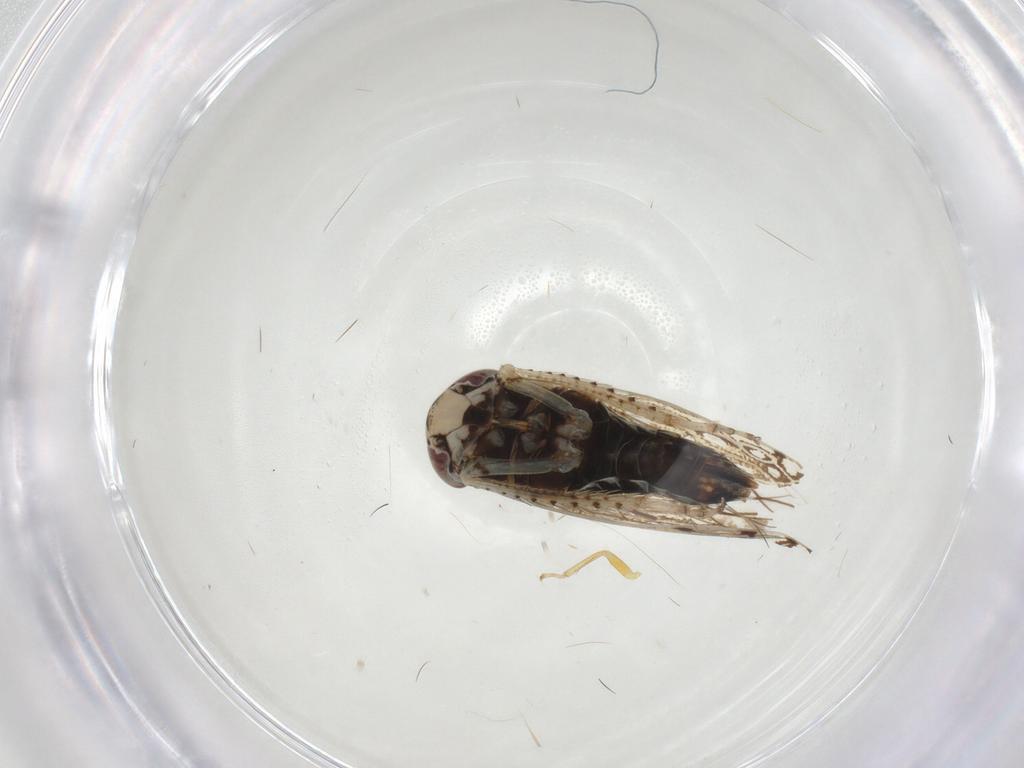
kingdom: Animalia
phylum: Arthropoda
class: Insecta
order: Hemiptera
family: Cicadellidae
